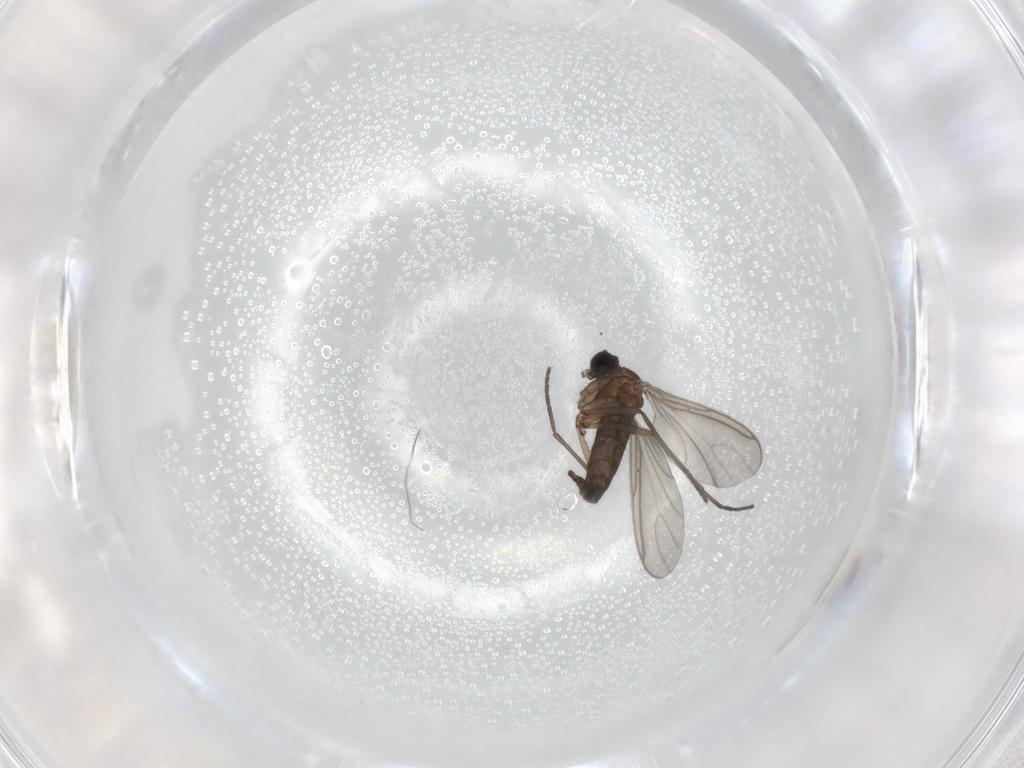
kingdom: Animalia
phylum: Arthropoda
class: Insecta
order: Diptera
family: Sciaridae
